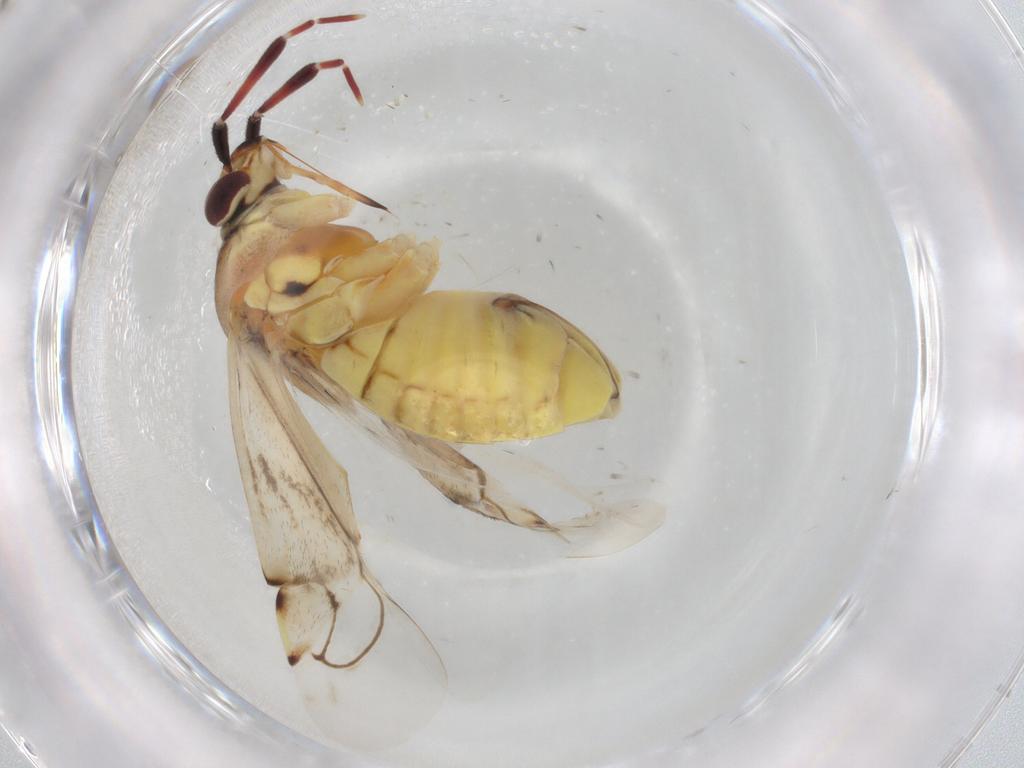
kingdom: Animalia
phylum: Arthropoda
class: Insecta
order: Hemiptera
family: Miridae
